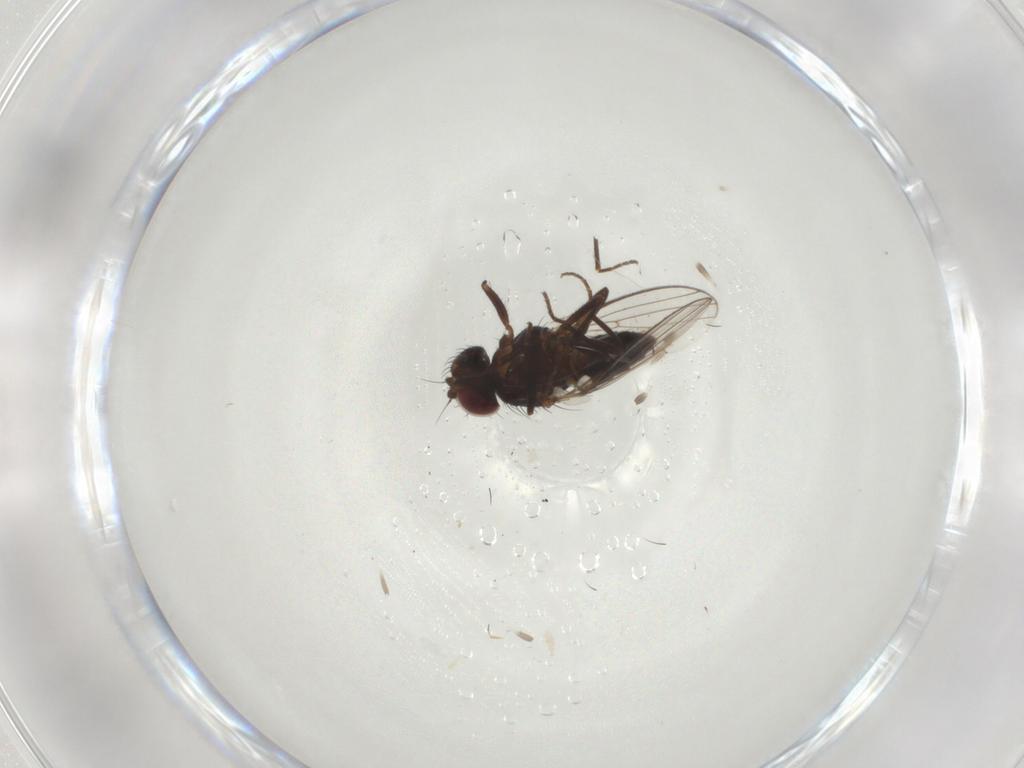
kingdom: Animalia
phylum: Arthropoda
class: Insecta
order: Diptera
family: Carnidae
